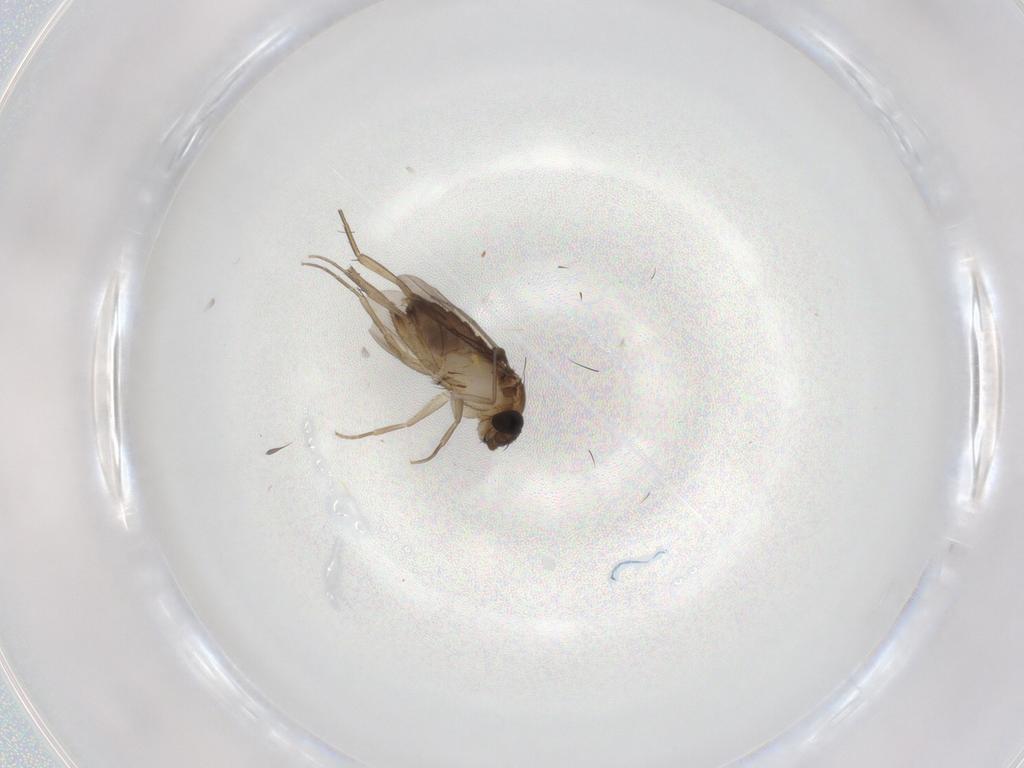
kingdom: Animalia
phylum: Arthropoda
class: Insecta
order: Diptera
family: Phoridae
